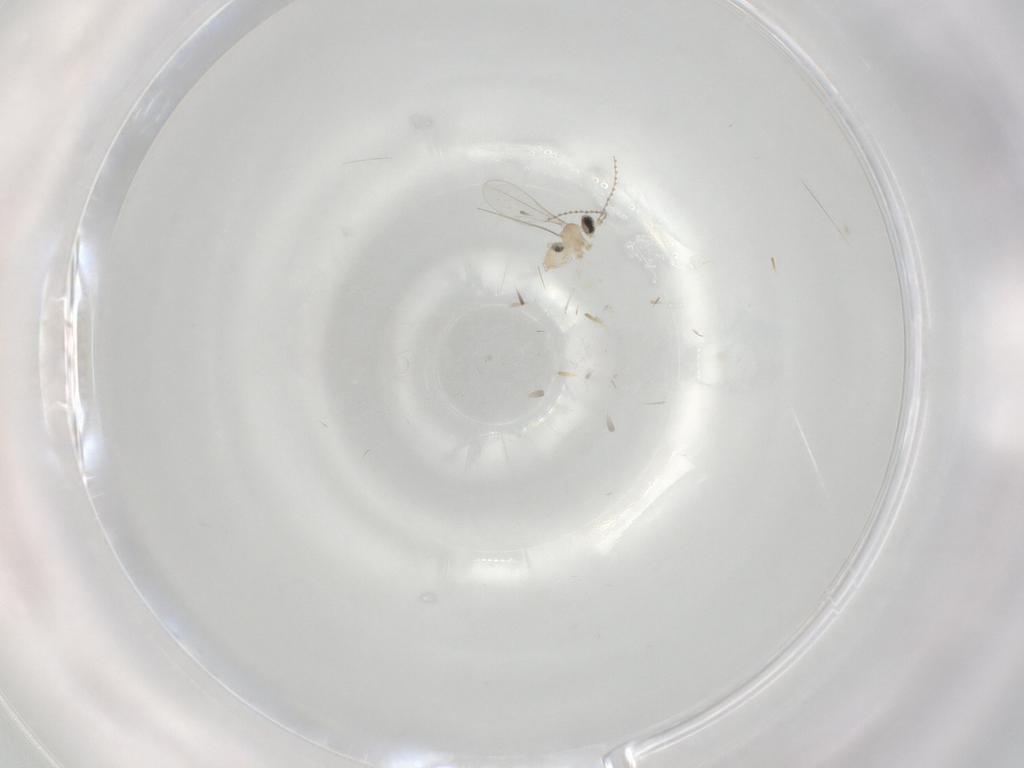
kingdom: Animalia
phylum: Arthropoda
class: Insecta
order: Diptera
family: Cecidomyiidae
